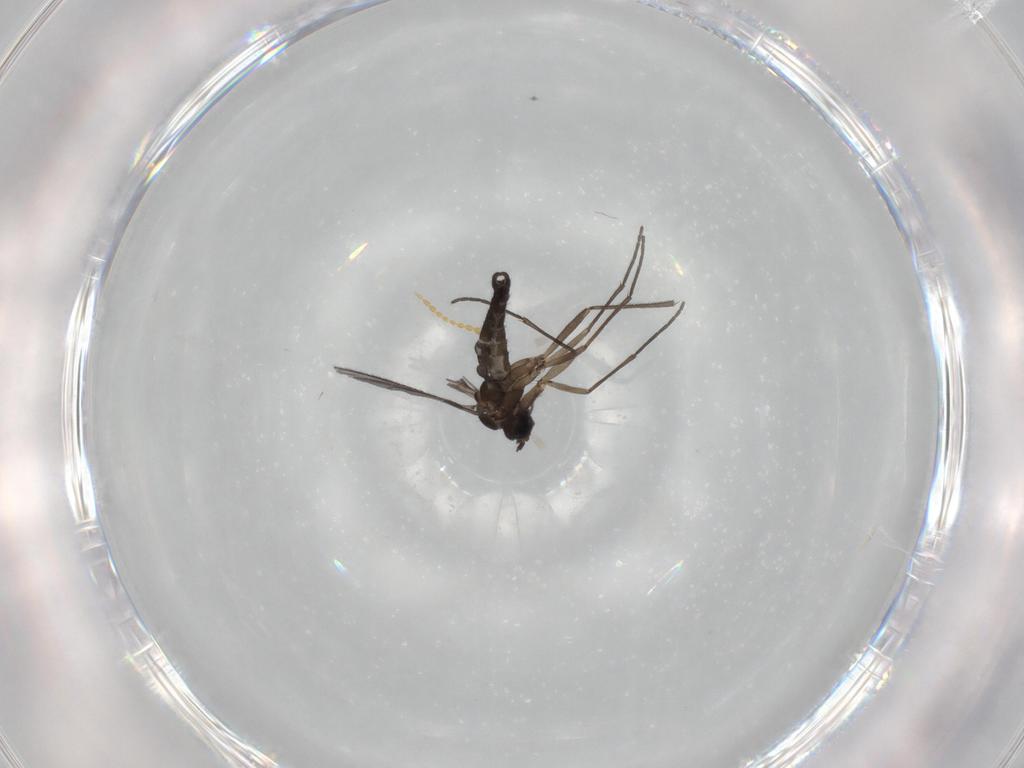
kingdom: Animalia
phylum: Arthropoda
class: Insecta
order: Diptera
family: Sciaridae
